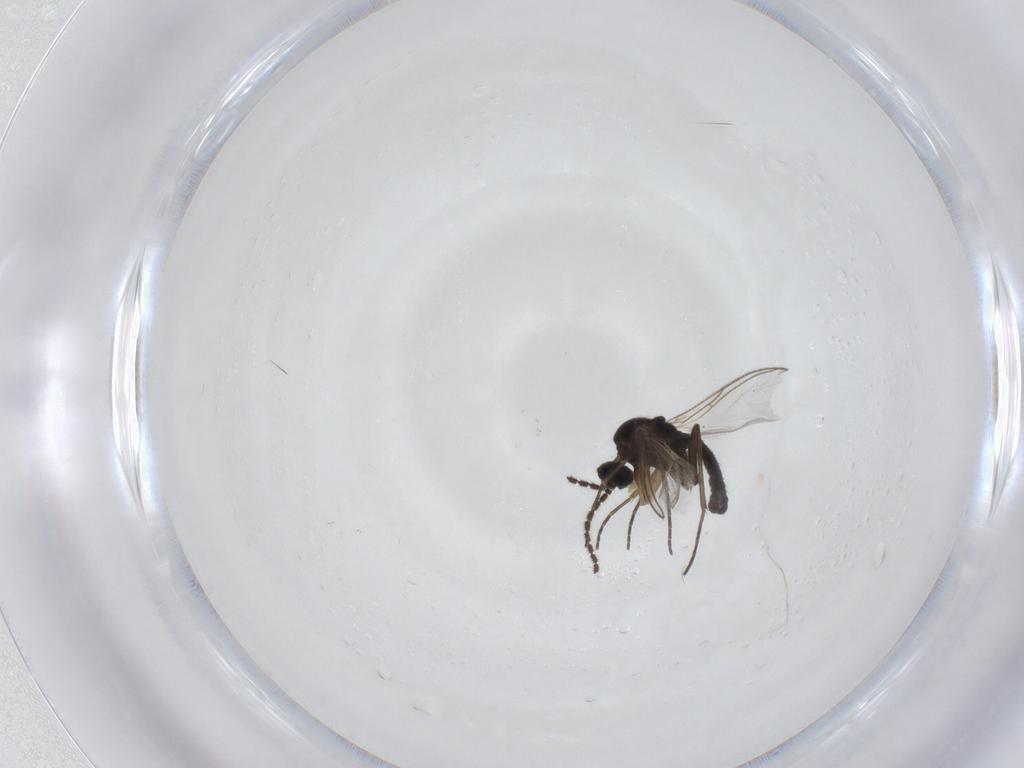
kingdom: Animalia
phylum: Arthropoda
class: Insecta
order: Diptera
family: Sciaridae
